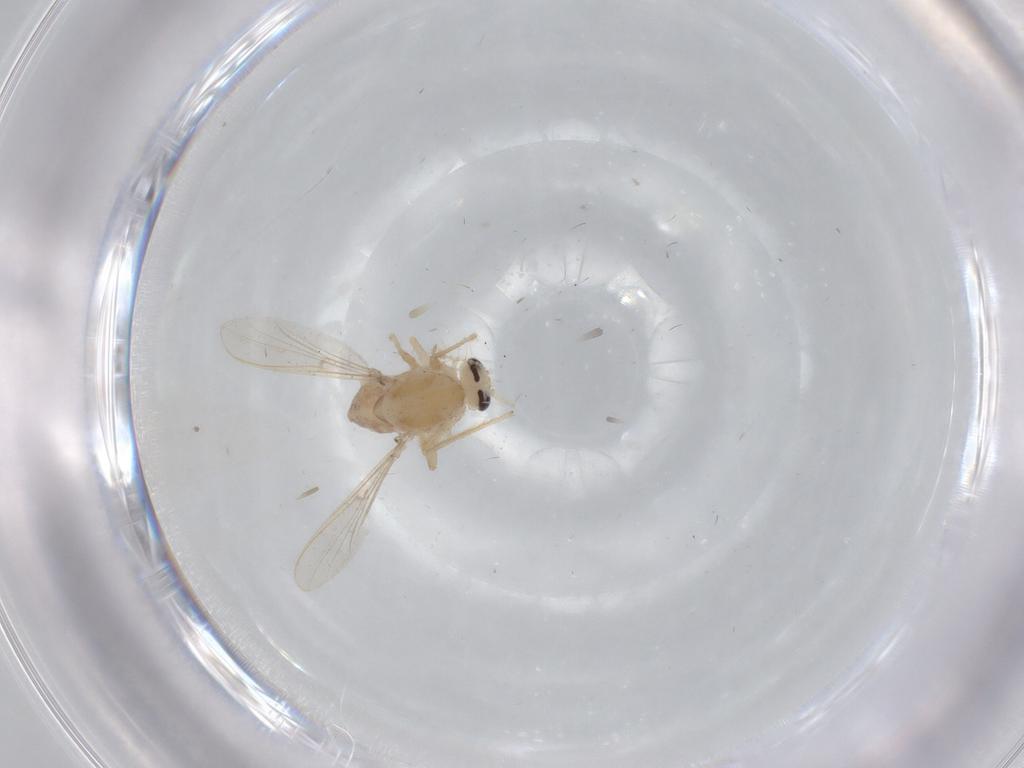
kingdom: Animalia
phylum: Arthropoda
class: Insecta
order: Diptera
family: Chironomidae
